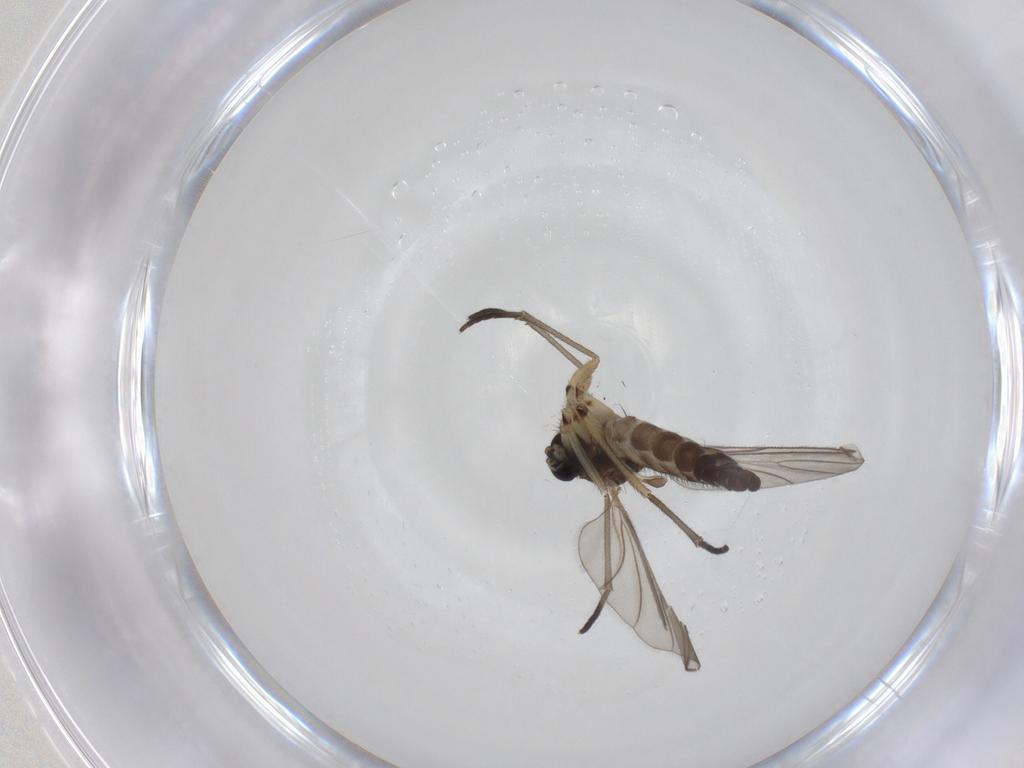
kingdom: Animalia
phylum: Arthropoda
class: Insecta
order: Diptera
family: Sciaridae
